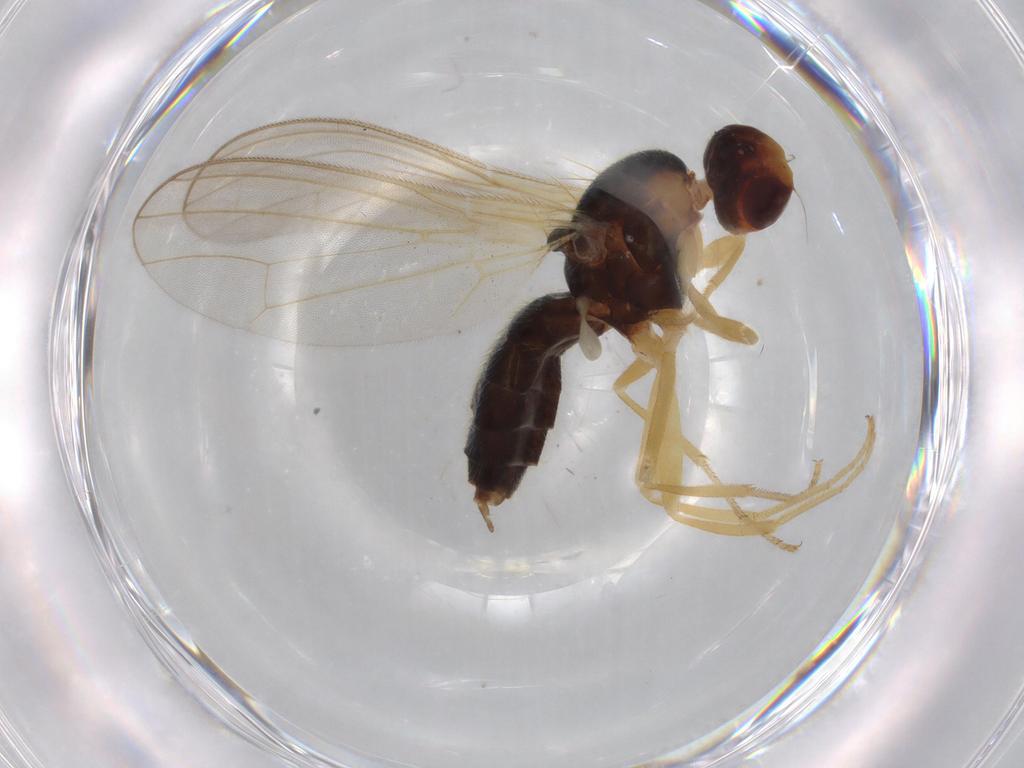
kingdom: Animalia
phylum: Arthropoda
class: Insecta
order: Diptera
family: Psilidae
